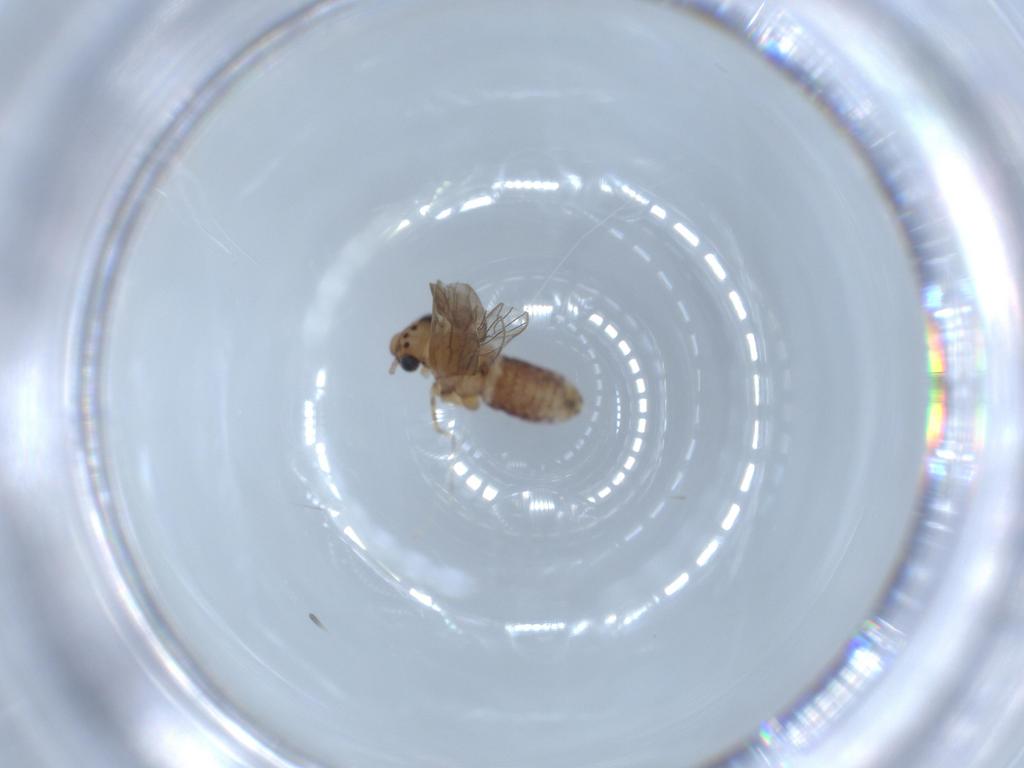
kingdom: Animalia
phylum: Arthropoda
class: Insecta
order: Psocodea
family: Lepidopsocidae
